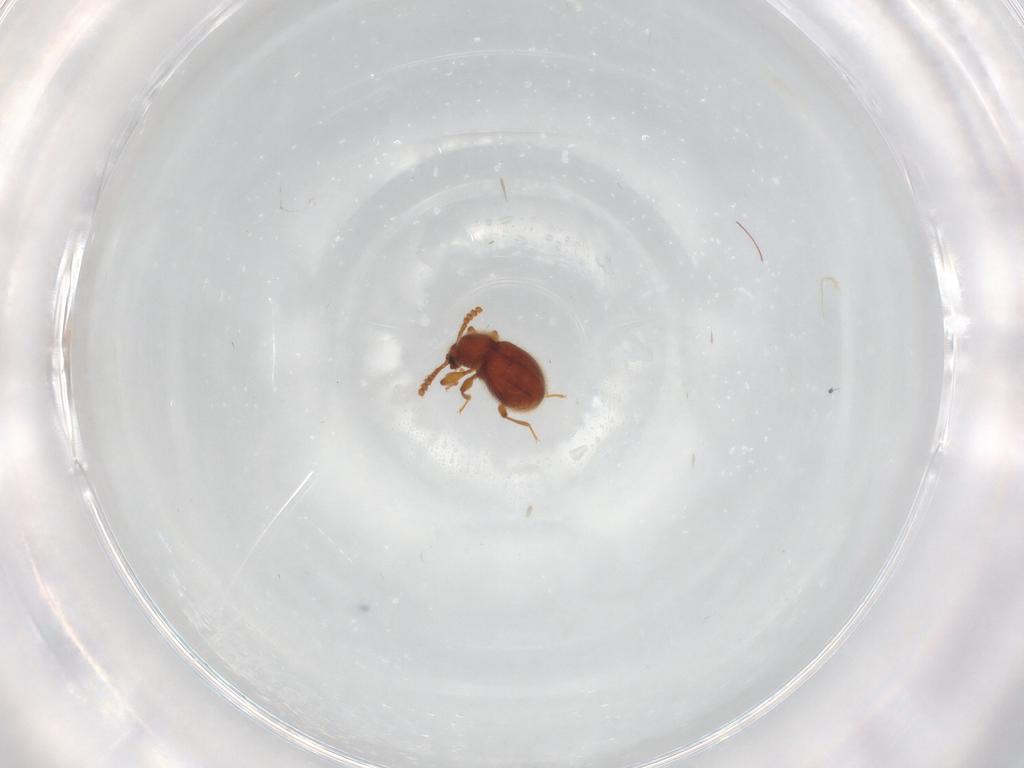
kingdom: Animalia
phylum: Arthropoda
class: Insecta
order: Coleoptera
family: Staphylinidae
